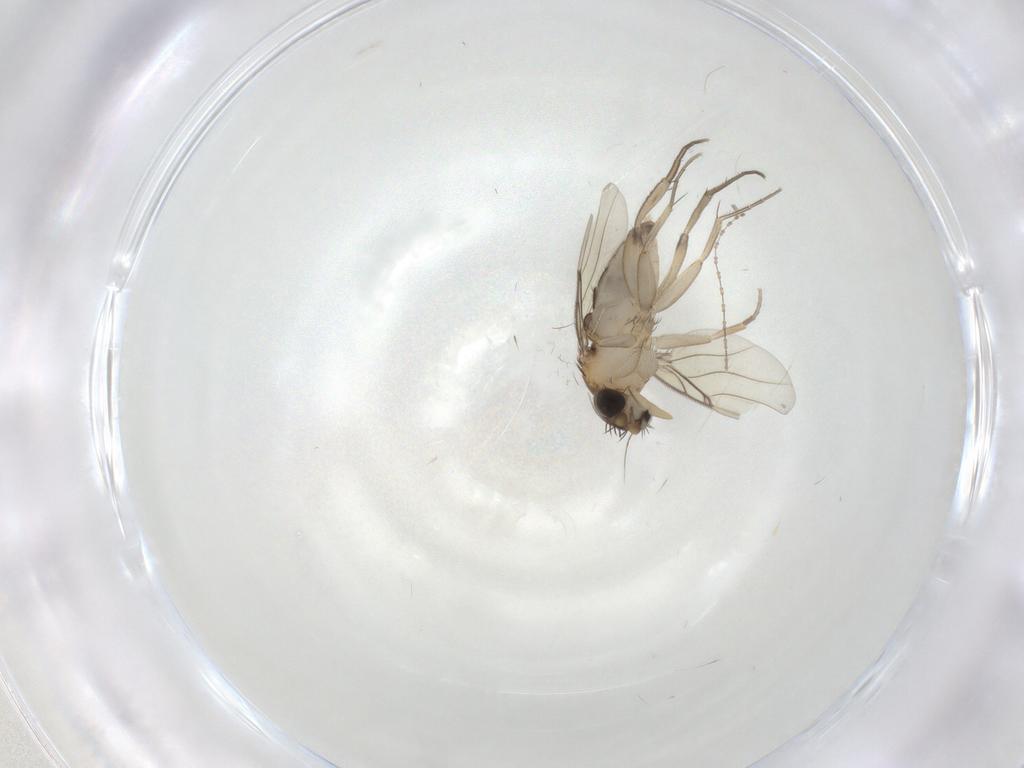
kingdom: Animalia
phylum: Arthropoda
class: Insecta
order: Diptera
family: Phoridae
